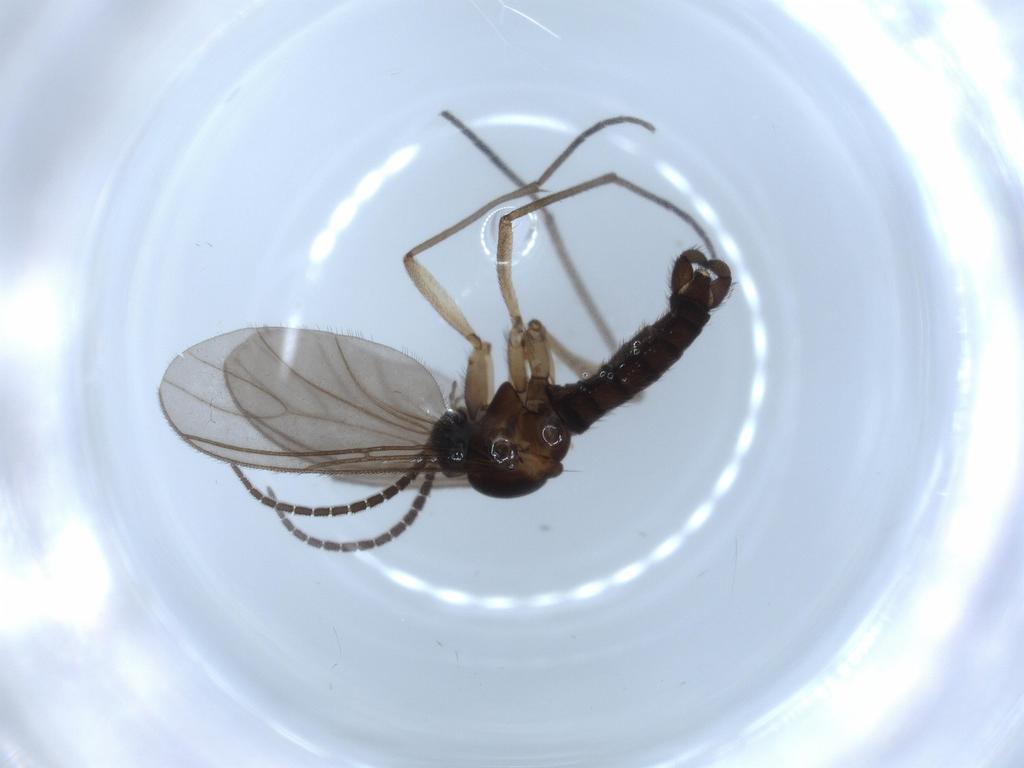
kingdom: Animalia
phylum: Arthropoda
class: Insecta
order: Diptera
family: Sciaridae
